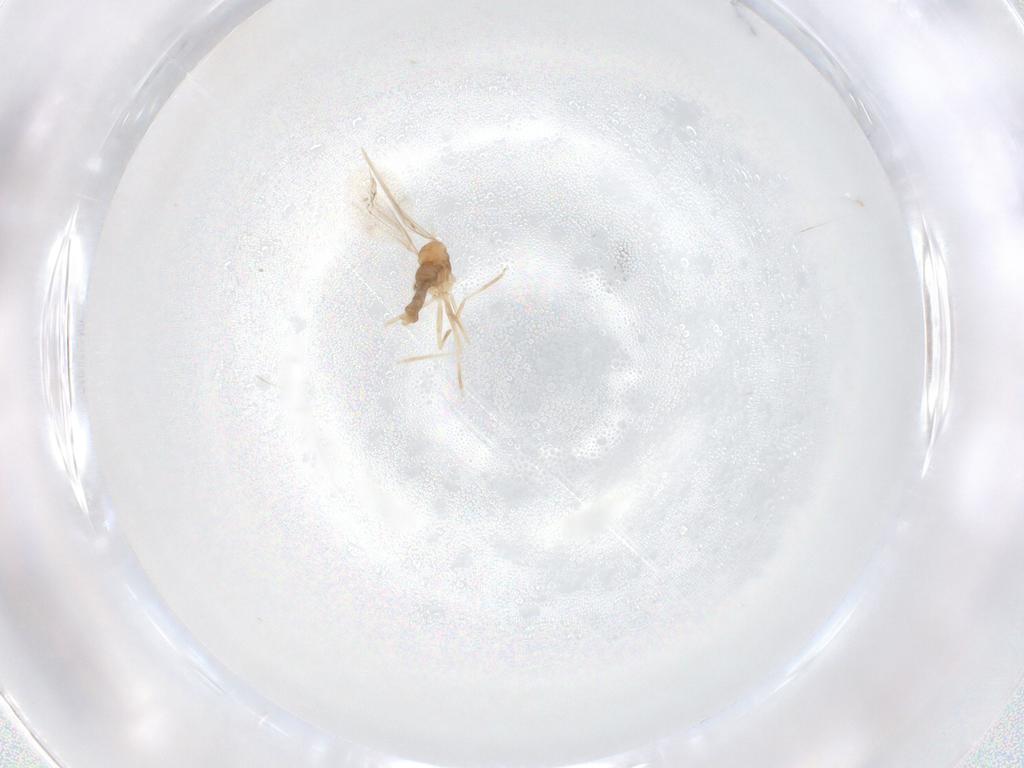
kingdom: Animalia
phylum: Arthropoda
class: Insecta
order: Diptera
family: Cecidomyiidae
